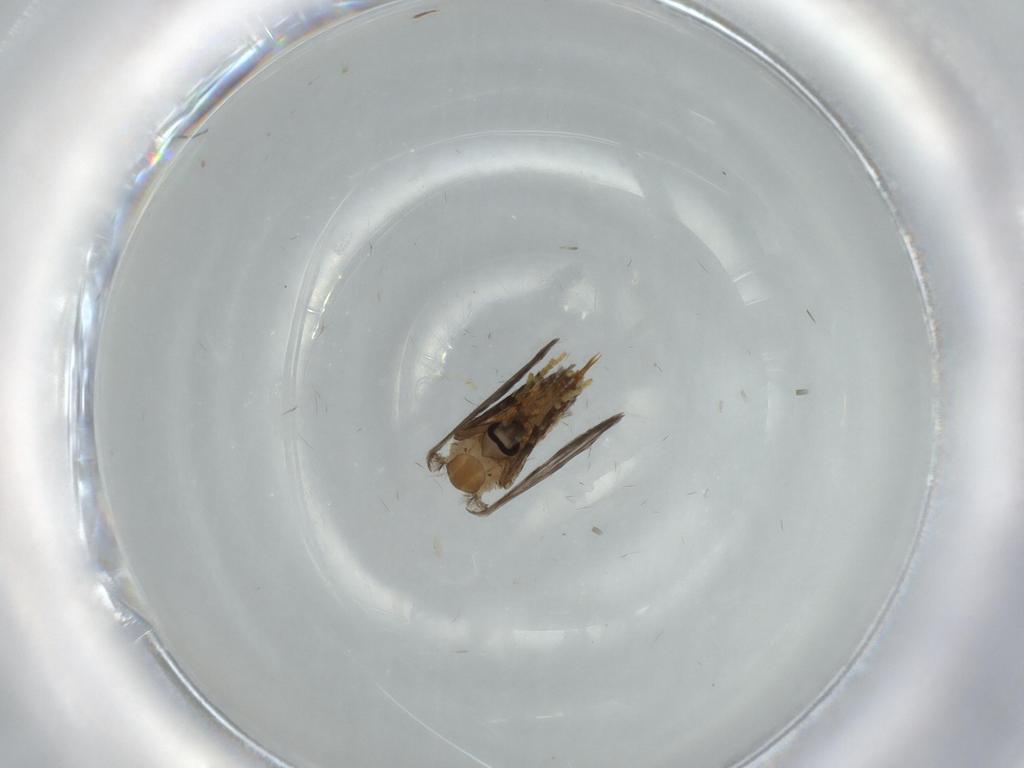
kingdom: Animalia
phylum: Arthropoda
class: Insecta
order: Diptera
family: Psychodidae
